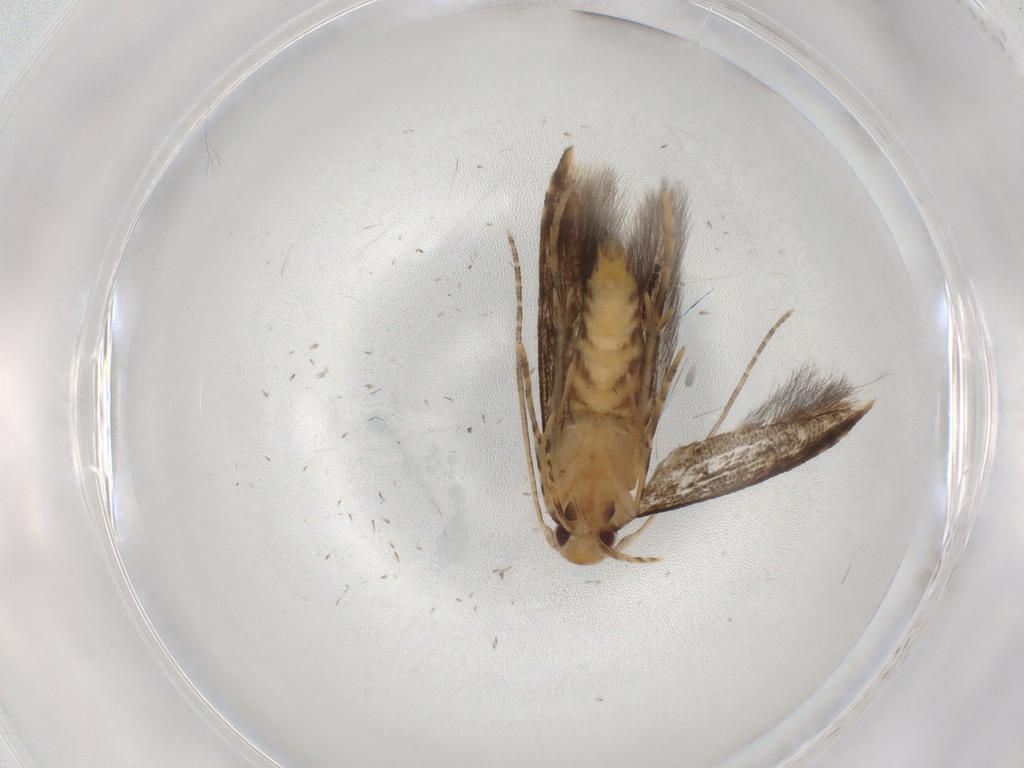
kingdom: Animalia
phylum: Arthropoda
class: Insecta
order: Lepidoptera
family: Momphidae
